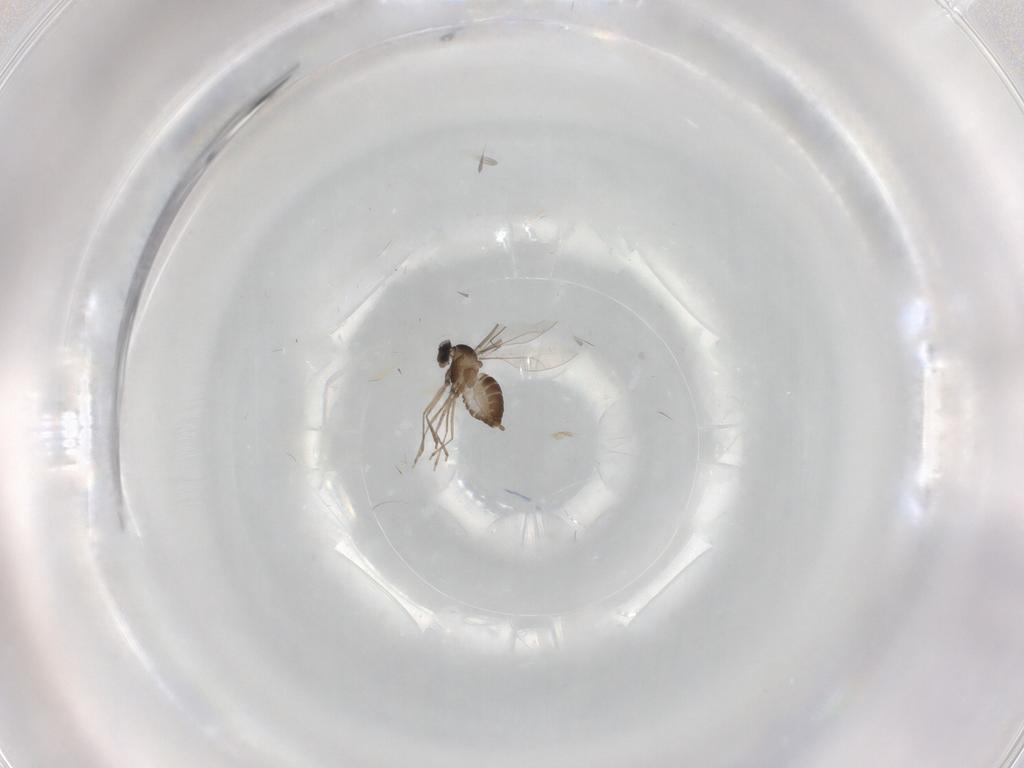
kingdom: Animalia
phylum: Arthropoda
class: Insecta
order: Diptera
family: Cecidomyiidae
